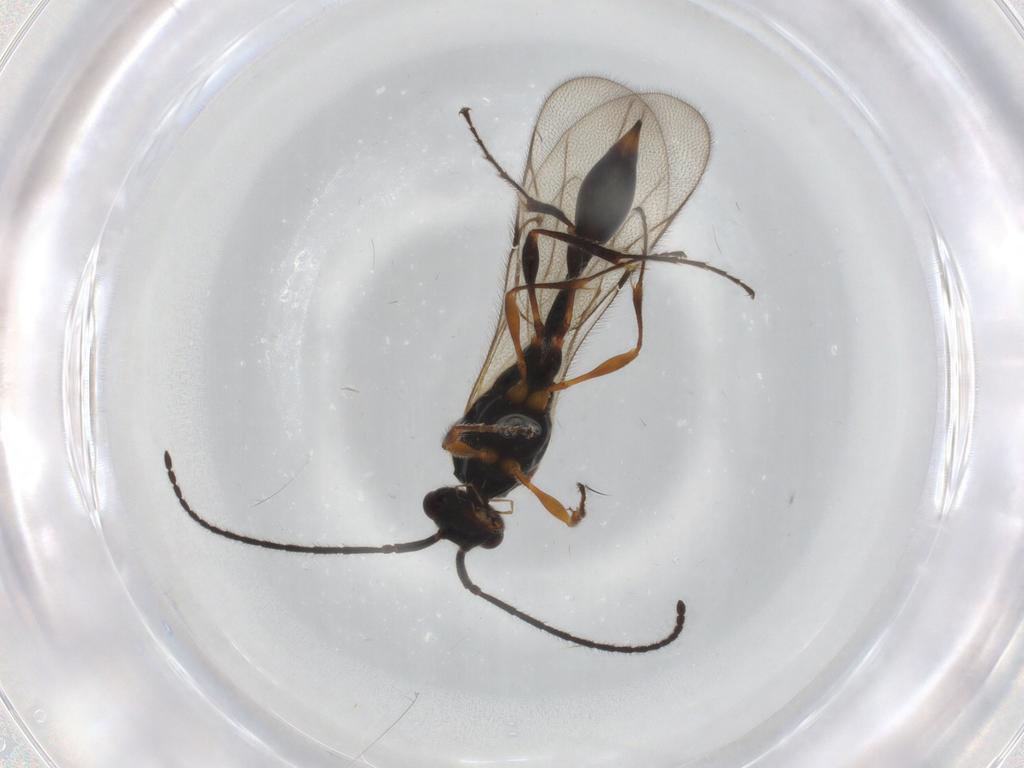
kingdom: Animalia
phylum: Arthropoda
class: Insecta
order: Hymenoptera
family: Diapriidae
